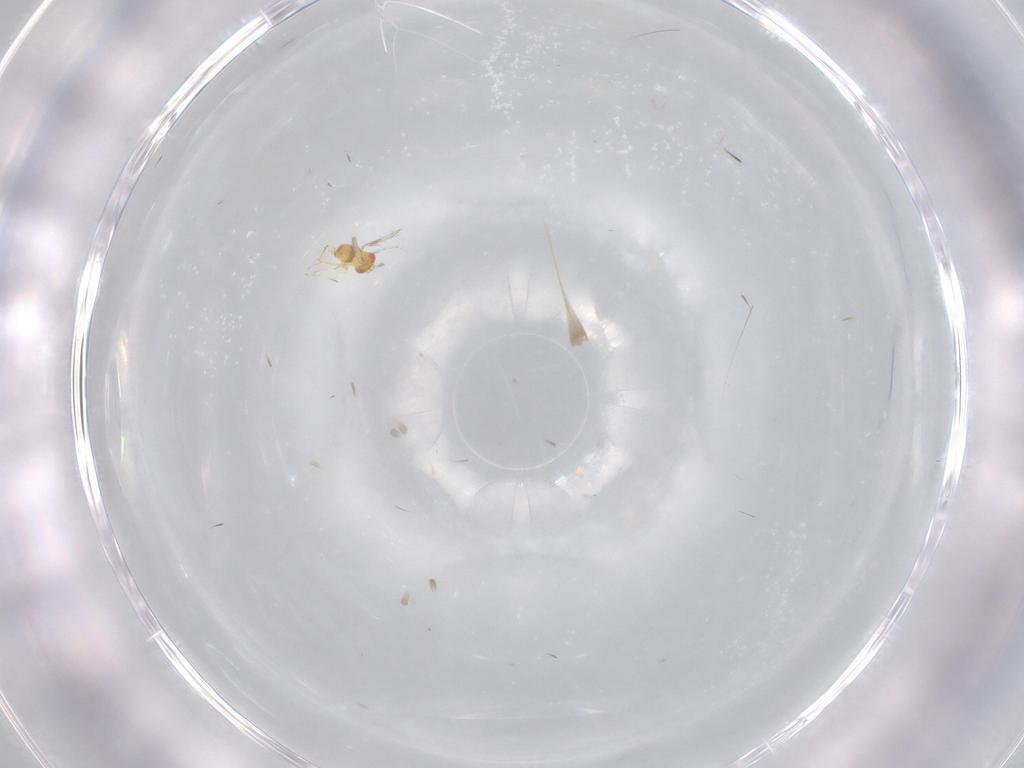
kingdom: Animalia
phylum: Arthropoda
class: Insecta
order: Hymenoptera
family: Trichogrammatidae
